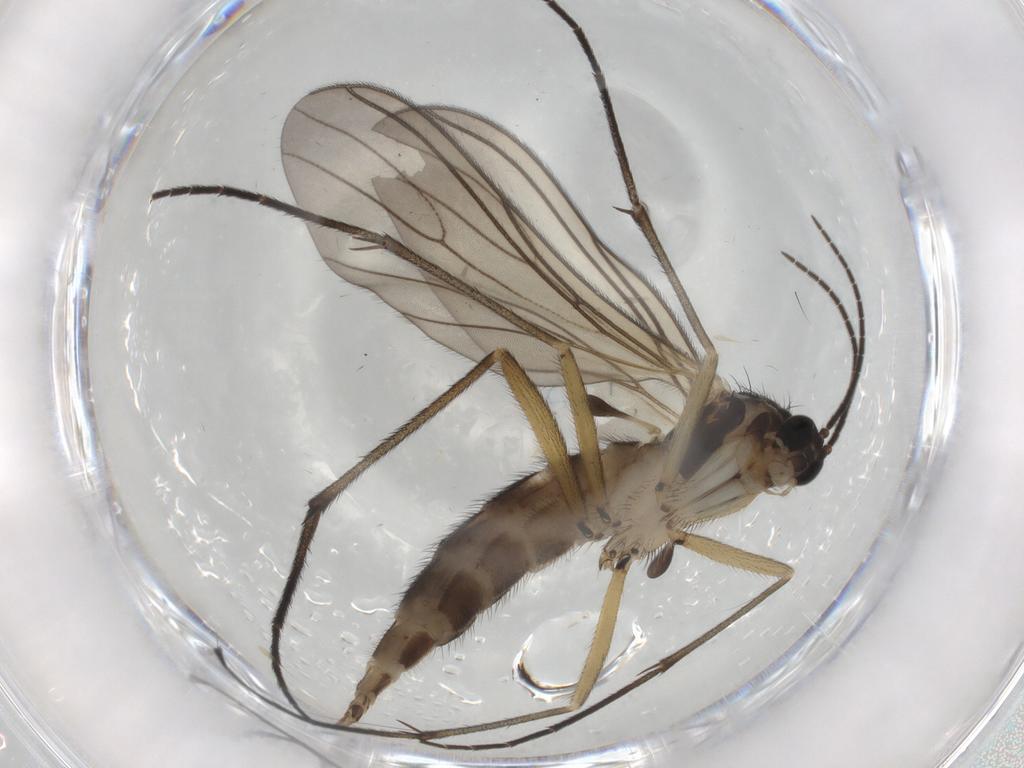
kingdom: Animalia
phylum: Arthropoda
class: Insecta
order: Diptera
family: Sciaridae
